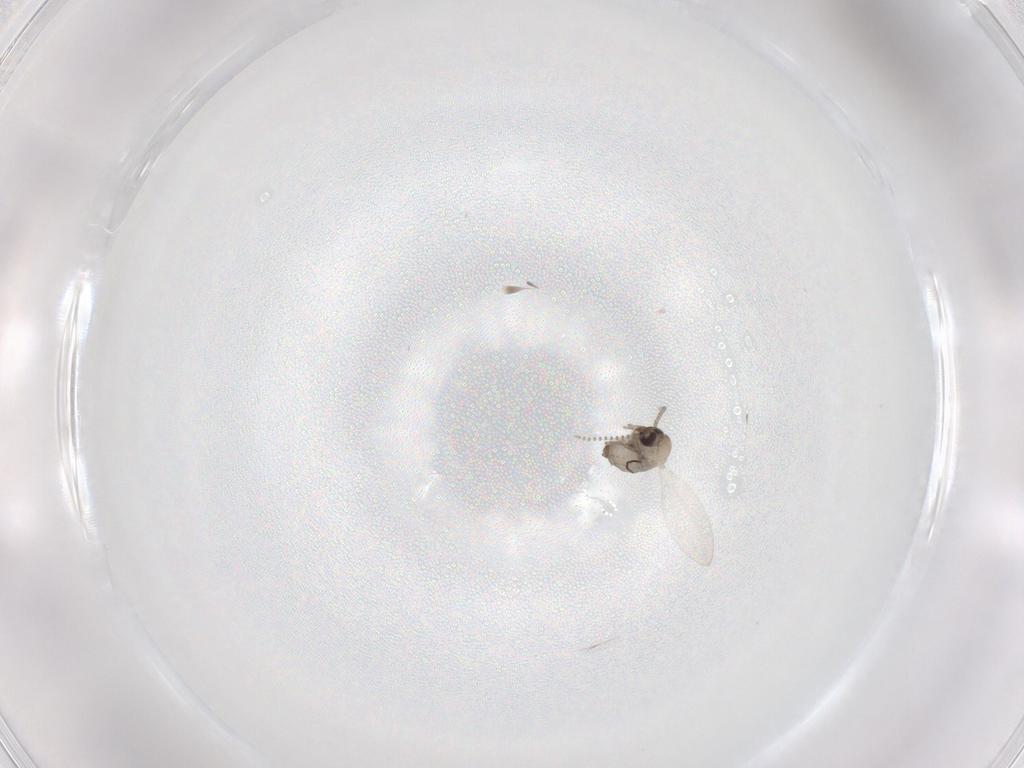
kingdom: Animalia
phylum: Arthropoda
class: Insecta
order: Diptera
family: Psychodidae
